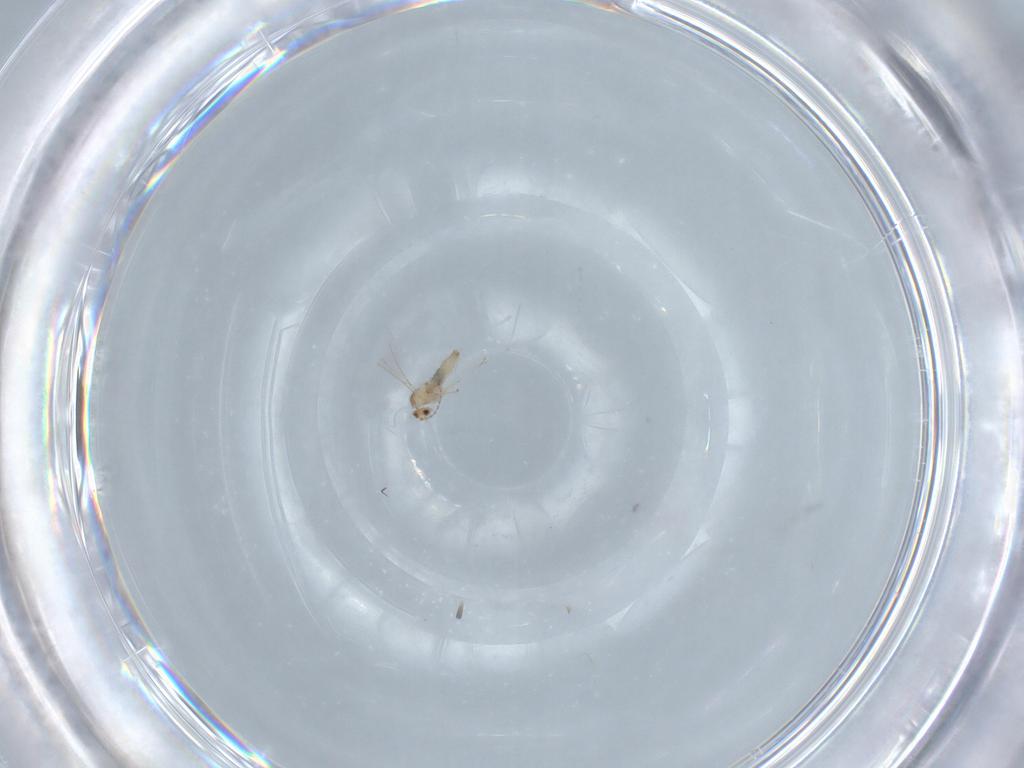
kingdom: Animalia
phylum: Arthropoda
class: Insecta
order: Diptera
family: Cecidomyiidae
